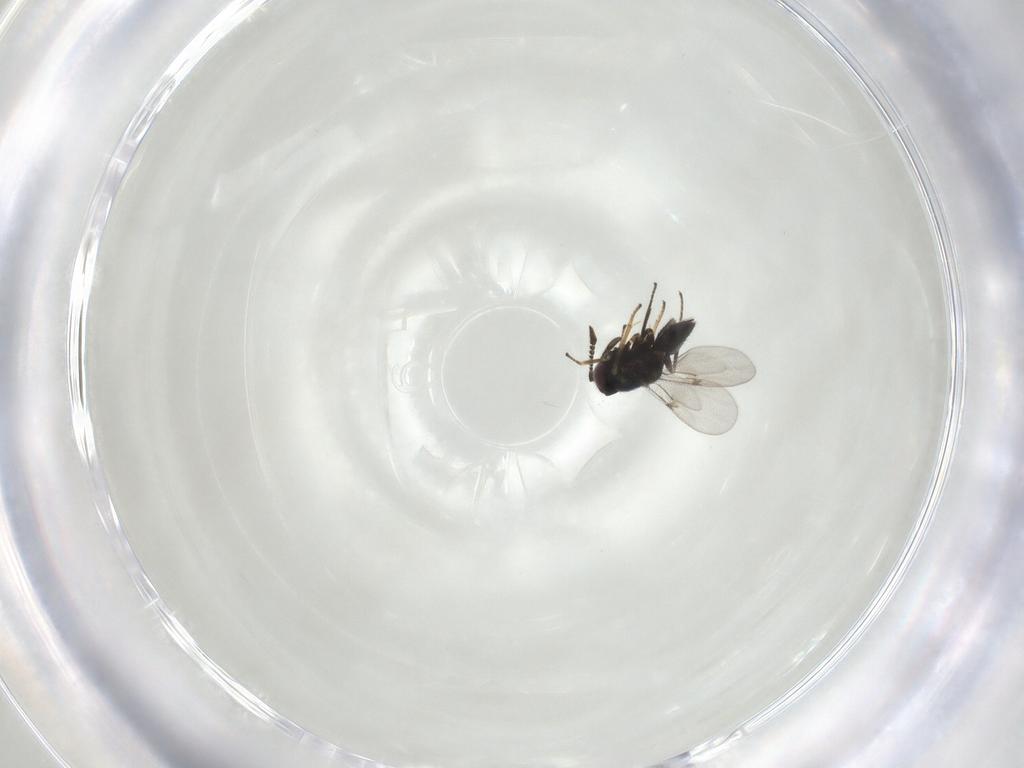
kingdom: Animalia
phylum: Arthropoda
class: Insecta
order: Hymenoptera
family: Encyrtidae
